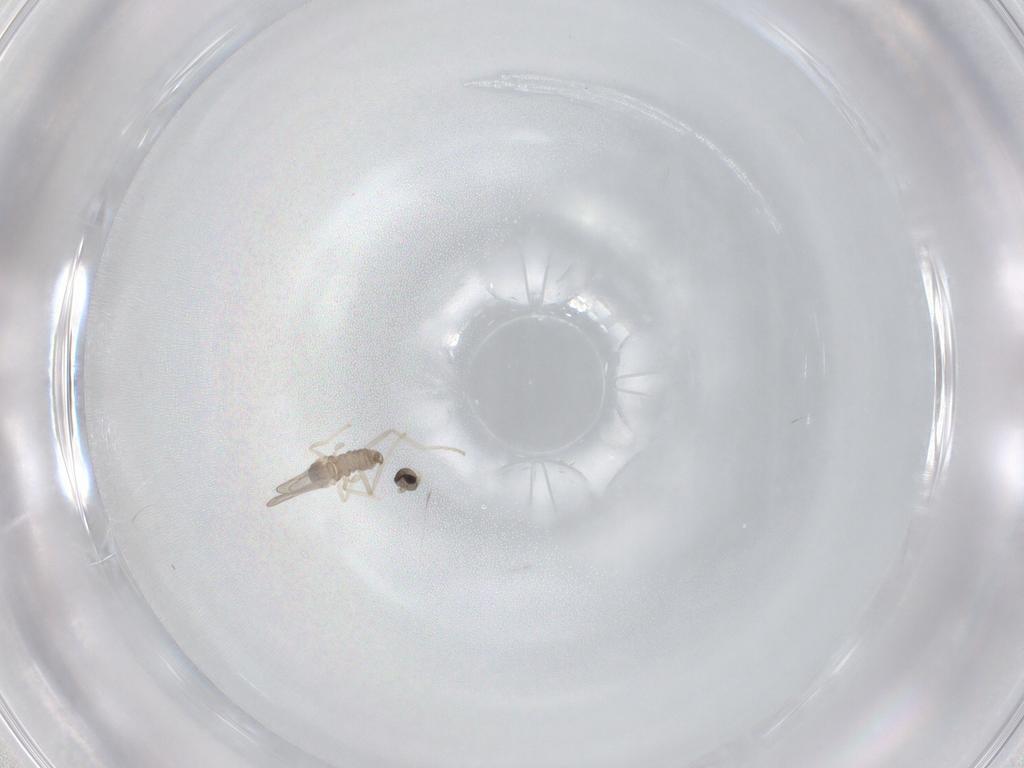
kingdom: Animalia
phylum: Arthropoda
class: Insecta
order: Diptera
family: Cecidomyiidae
